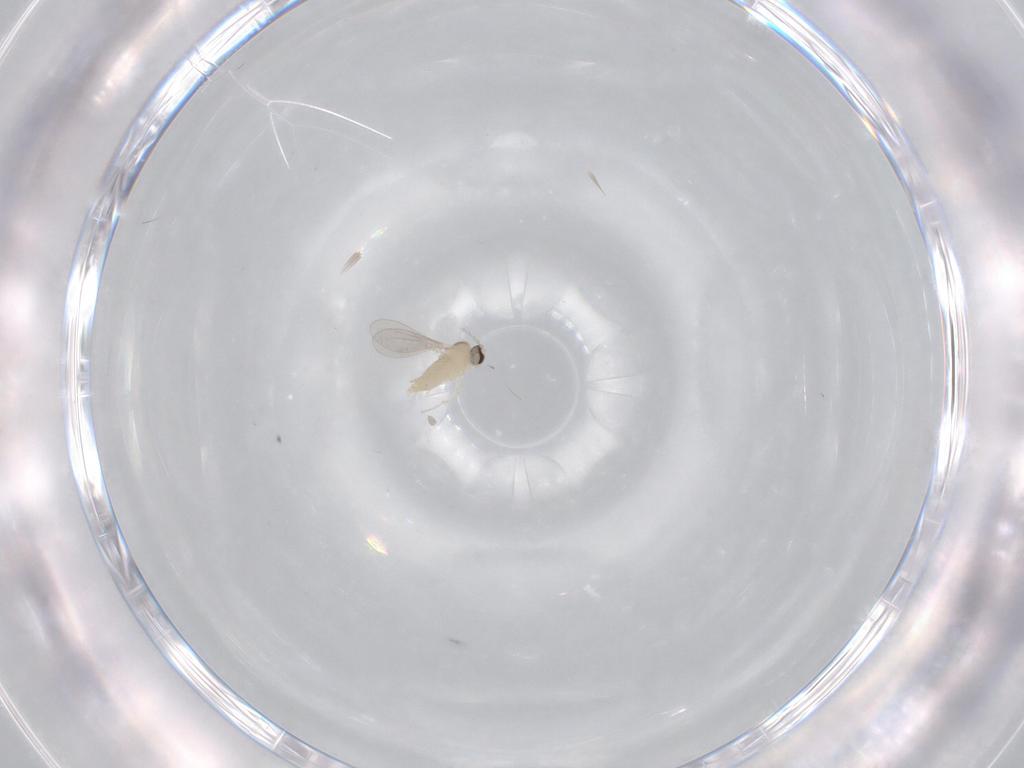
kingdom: Animalia
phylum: Arthropoda
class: Insecta
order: Diptera
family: Cecidomyiidae
